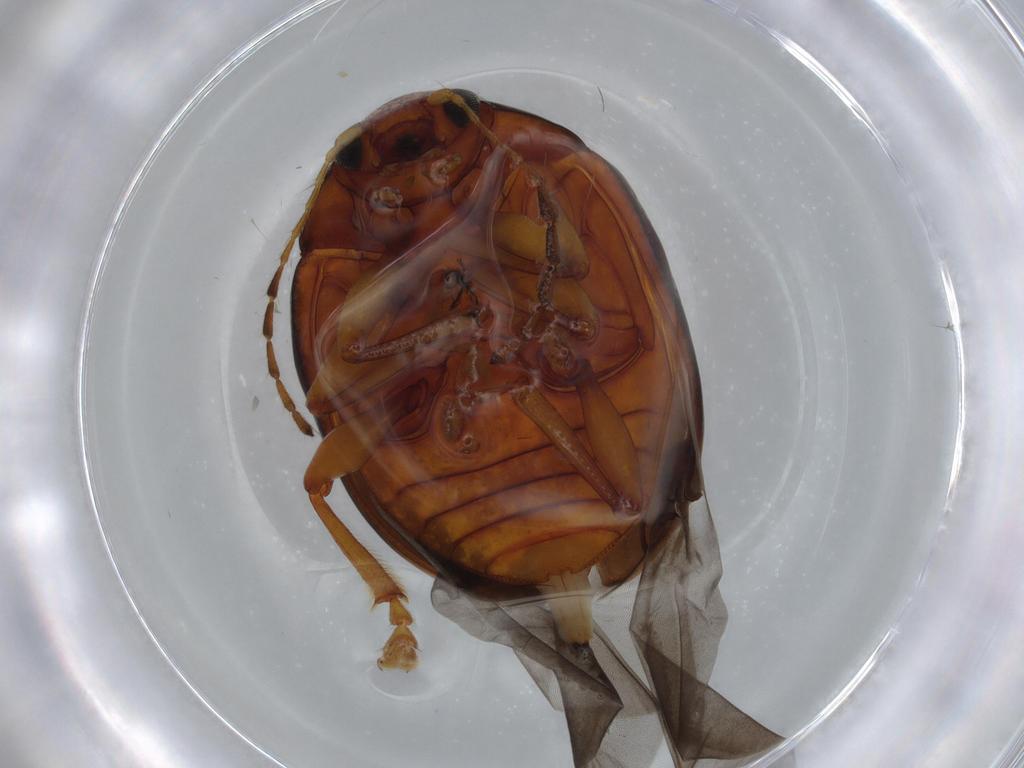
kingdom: Animalia
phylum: Arthropoda
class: Insecta
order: Coleoptera
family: Chrysomelidae
